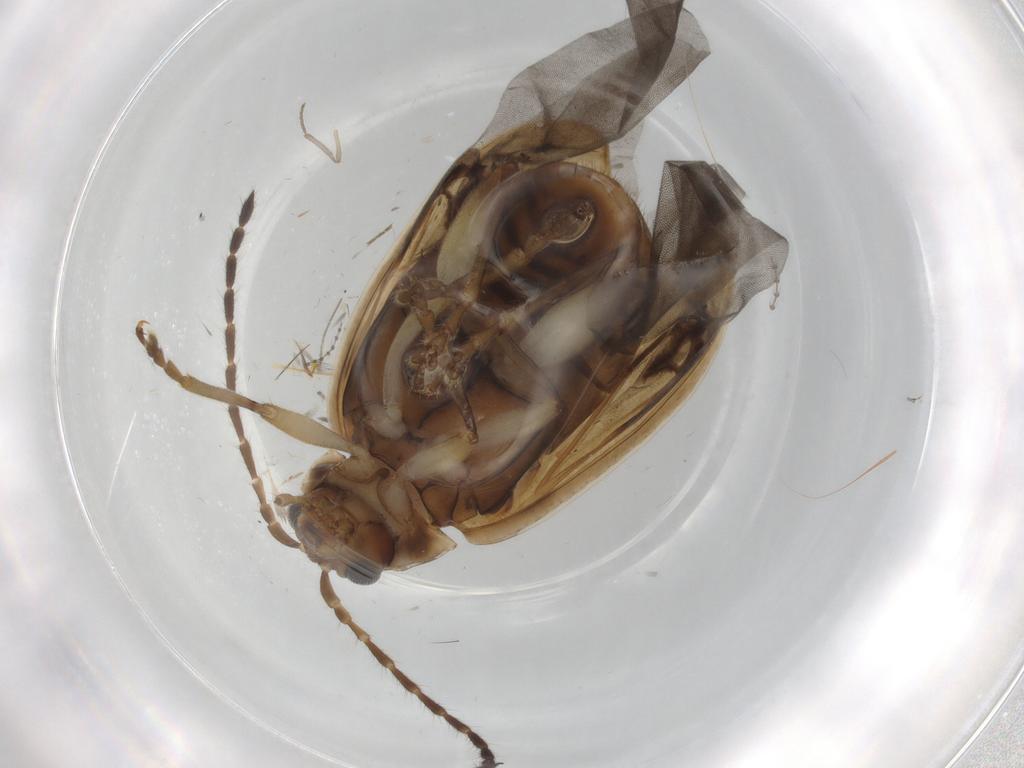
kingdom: Animalia
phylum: Arthropoda
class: Insecta
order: Coleoptera
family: Chrysomelidae
